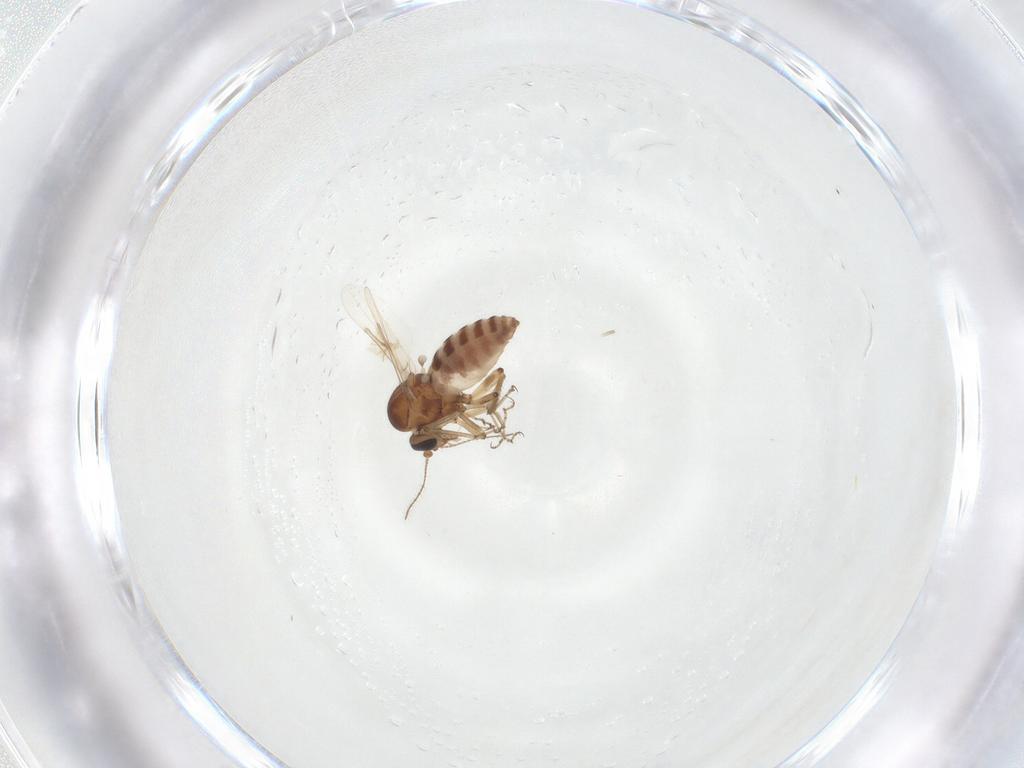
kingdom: Animalia
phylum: Arthropoda
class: Insecta
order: Diptera
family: Ceratopogonidae
